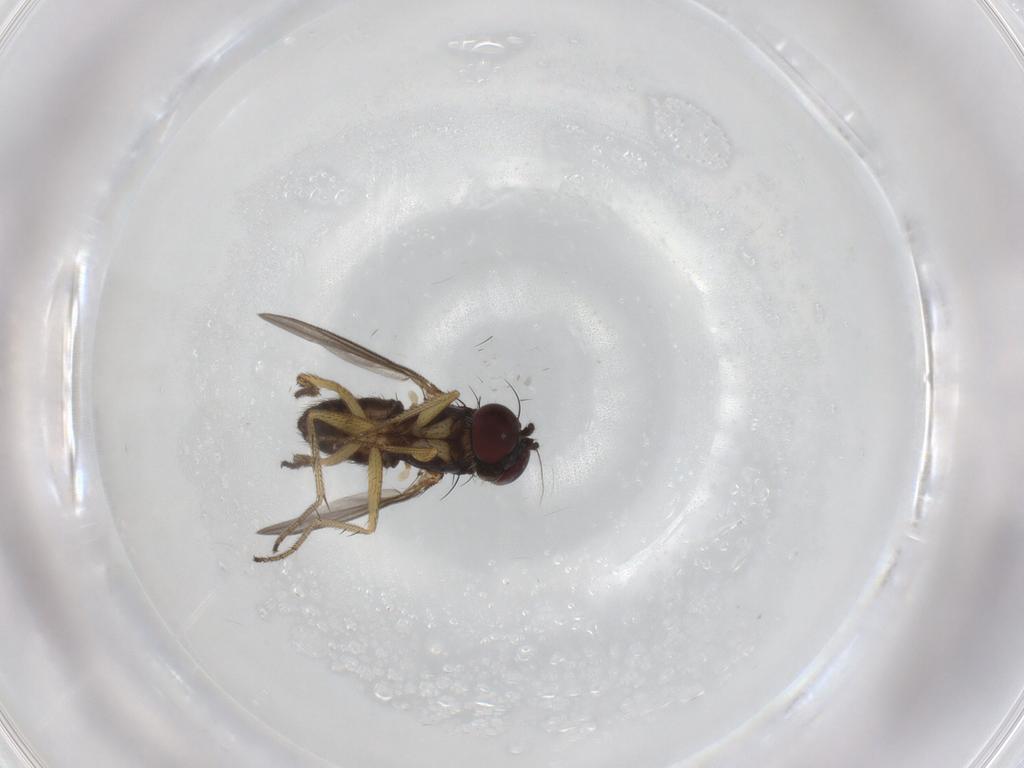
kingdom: Animalia
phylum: Arthropoda
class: Insecta
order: Diptera
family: Dolichopodidae
